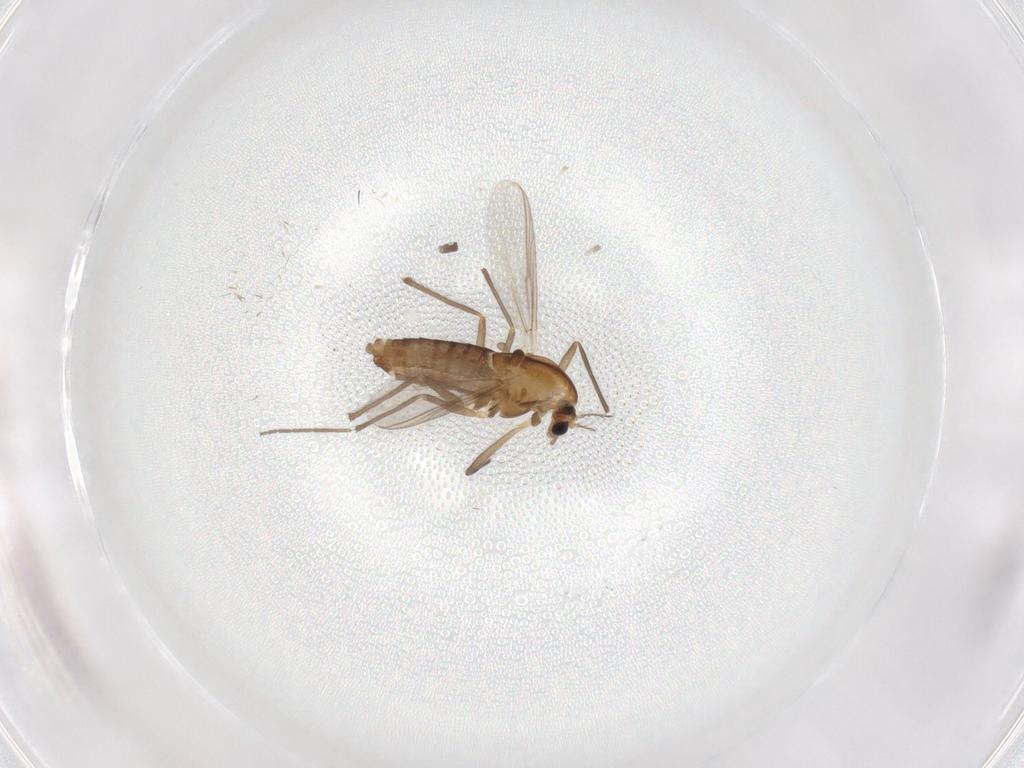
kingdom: Animalia
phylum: Arthropoda
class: Insecta
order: Diptera
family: Chironomidae
